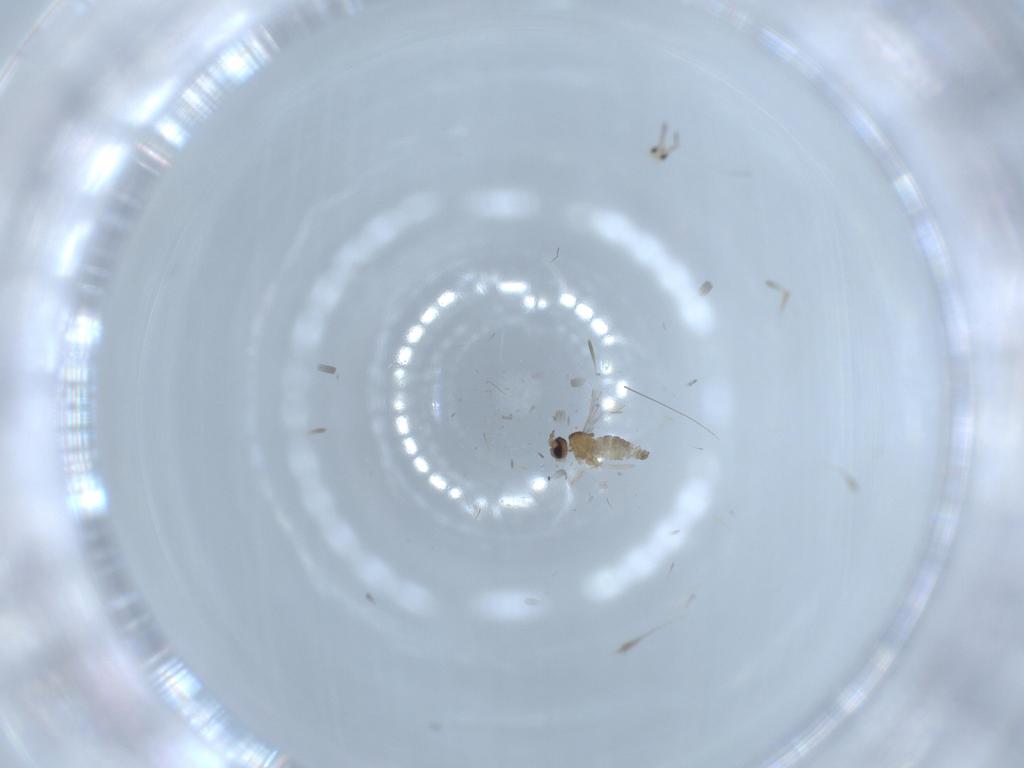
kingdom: Animalia
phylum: Arthropoda
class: Insecta
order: Diptera
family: Cecidomyiidae
